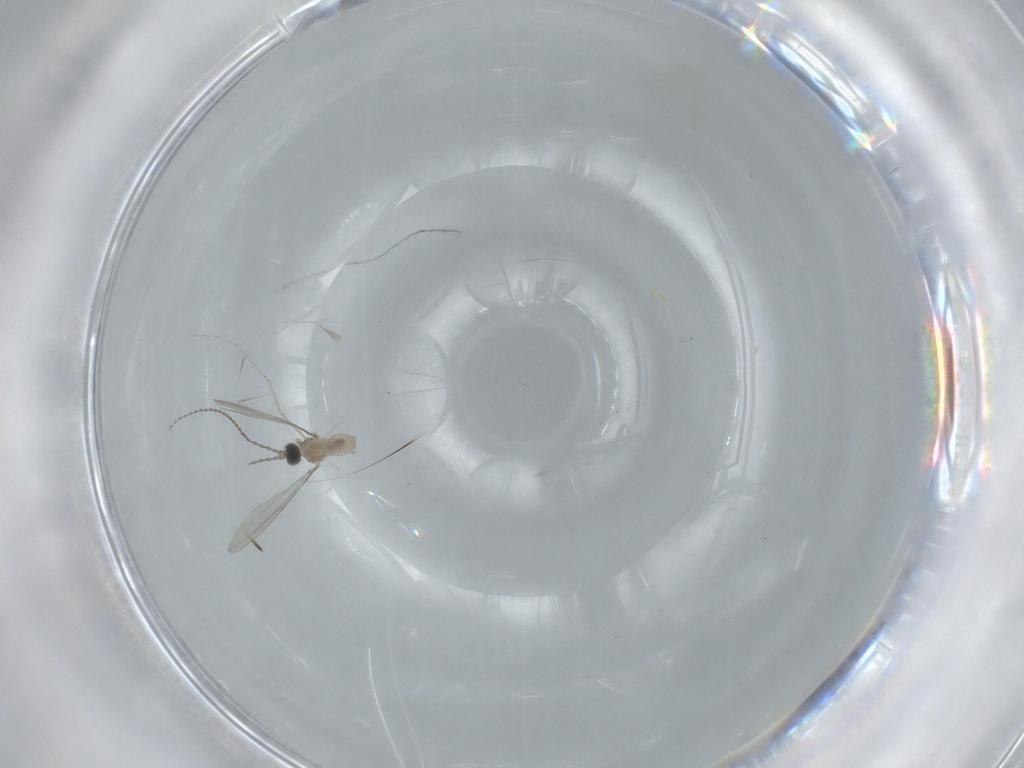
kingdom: Animalia
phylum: Arthropoda
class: Insecta
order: Diptera
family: Cecidomyiidae
